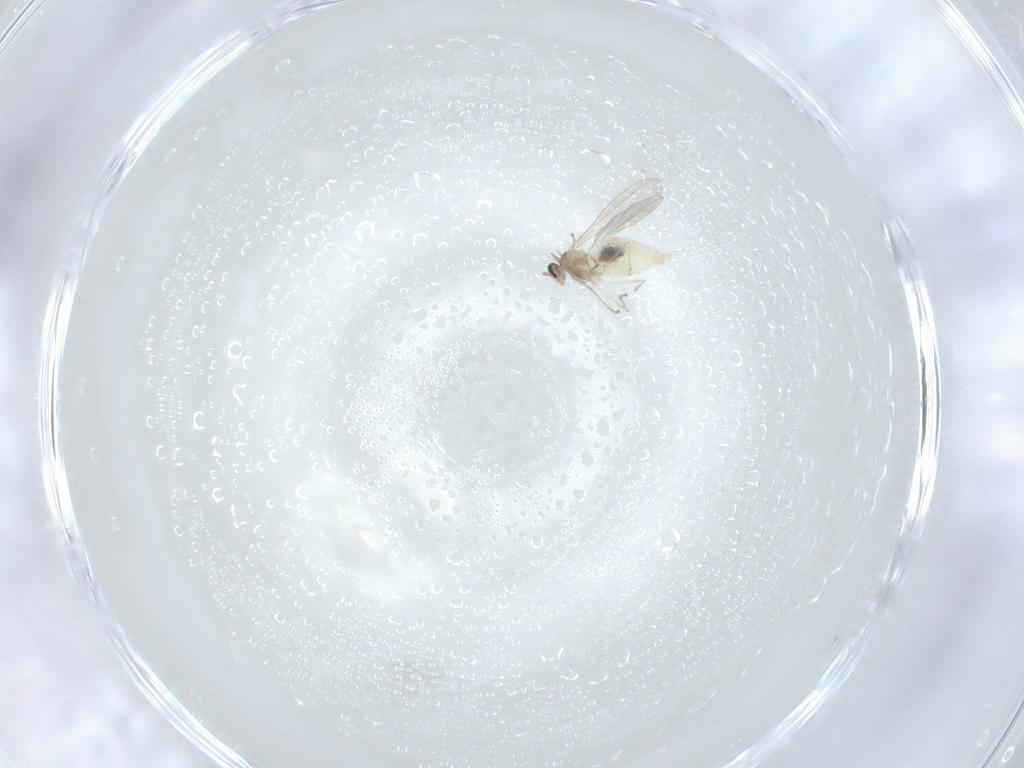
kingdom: Animalia
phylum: Arthropoda
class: Insecta
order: Diptera
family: Cecidomyiidae
